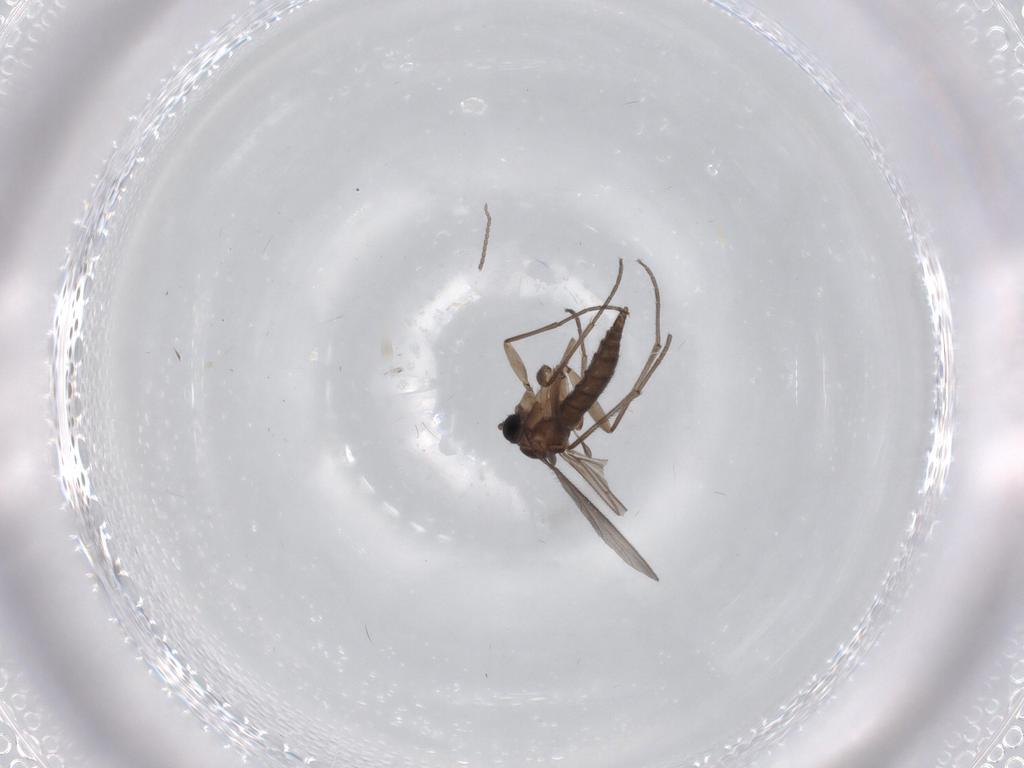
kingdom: Animalia
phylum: Arthropoda
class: Insecta
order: Diptera
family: Sciaridae
